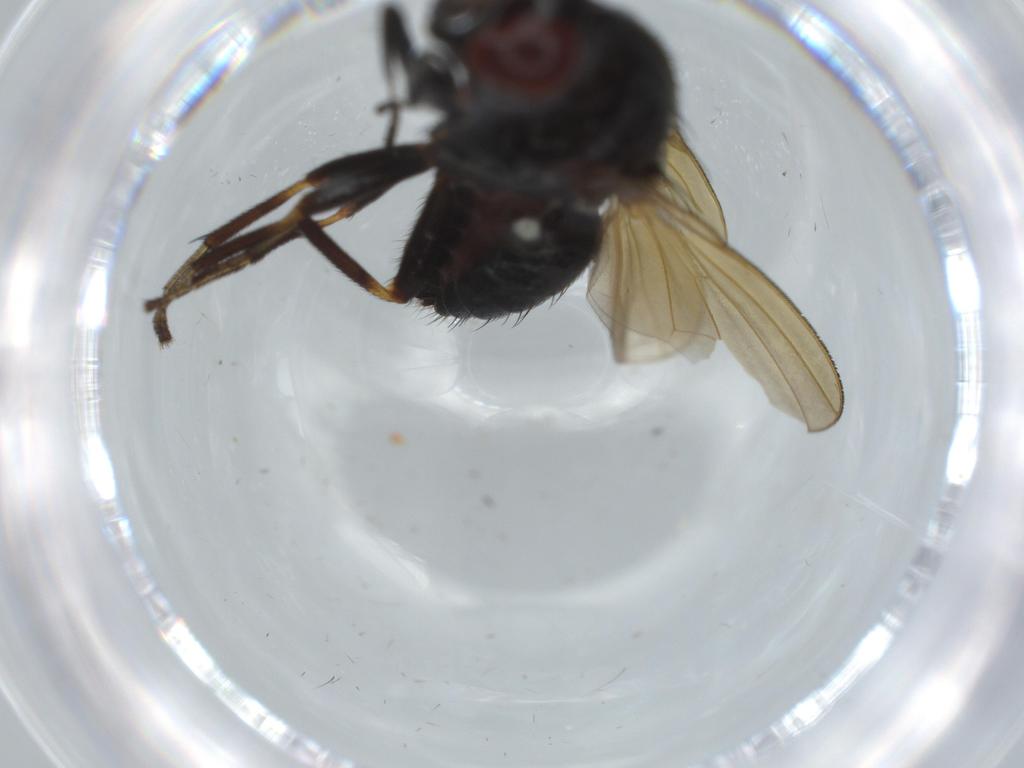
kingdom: Animalia
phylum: Arthropoda
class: Insecta
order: Diptera
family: Lauxaniidae
